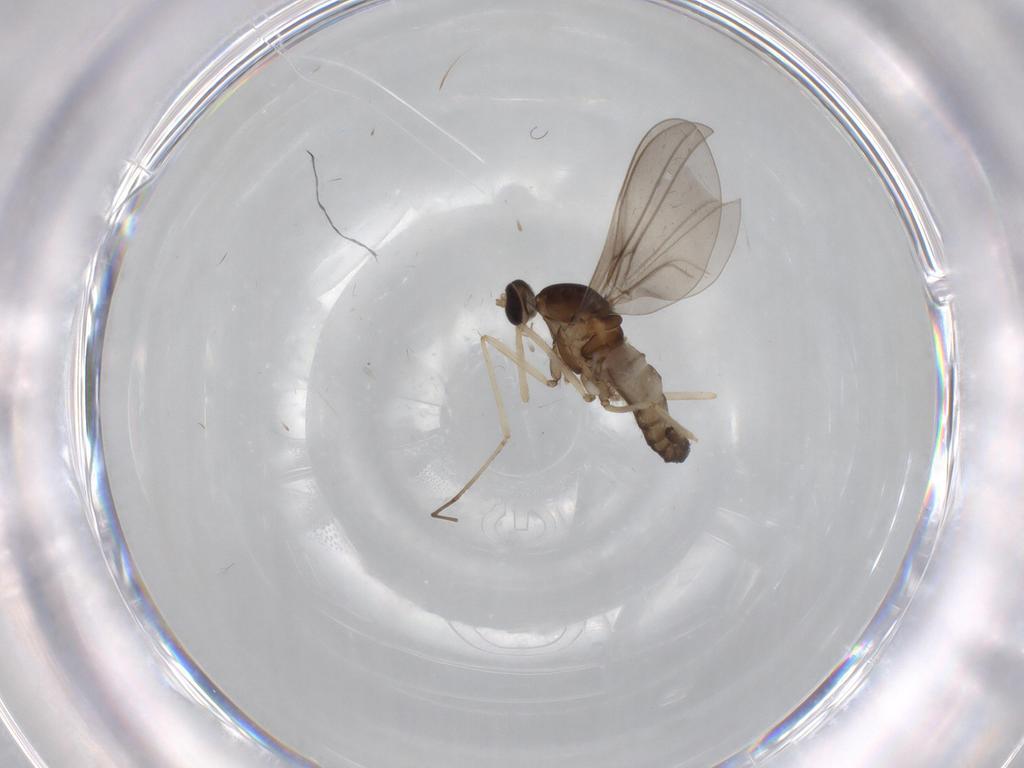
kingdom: Animalia
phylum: Arthropoda
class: Insecta
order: Diptera
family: Cecidomyiidae
